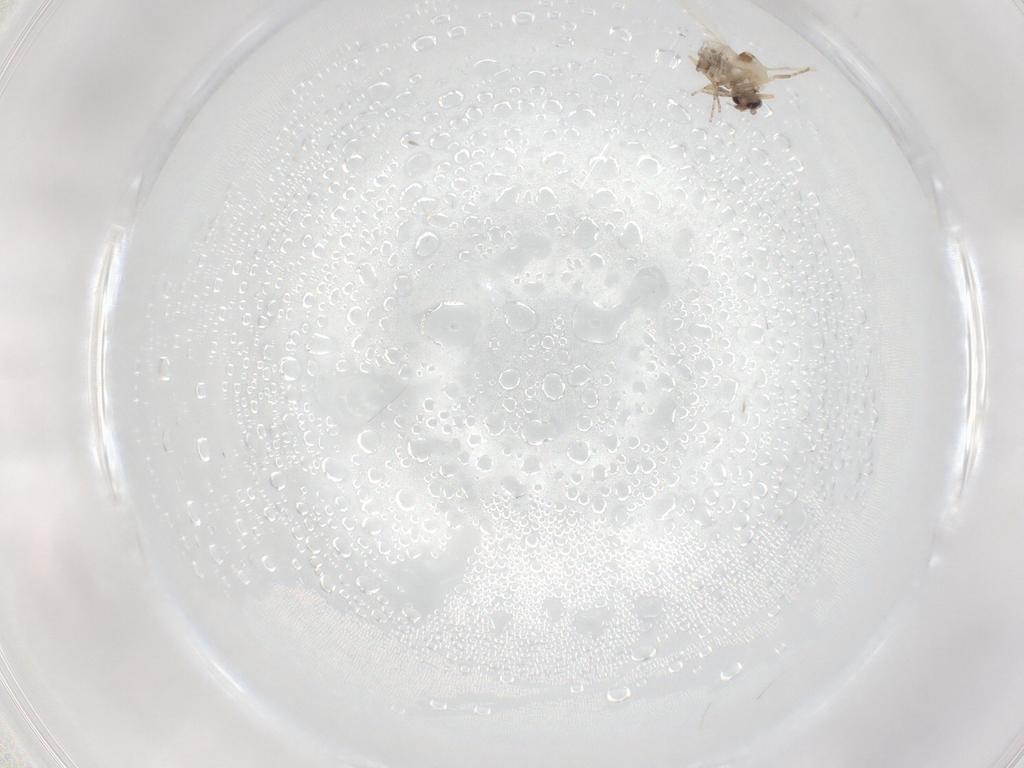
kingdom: Animalia
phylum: Arthropoda
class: Insecta
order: Diptera
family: Ceratopogonidae
